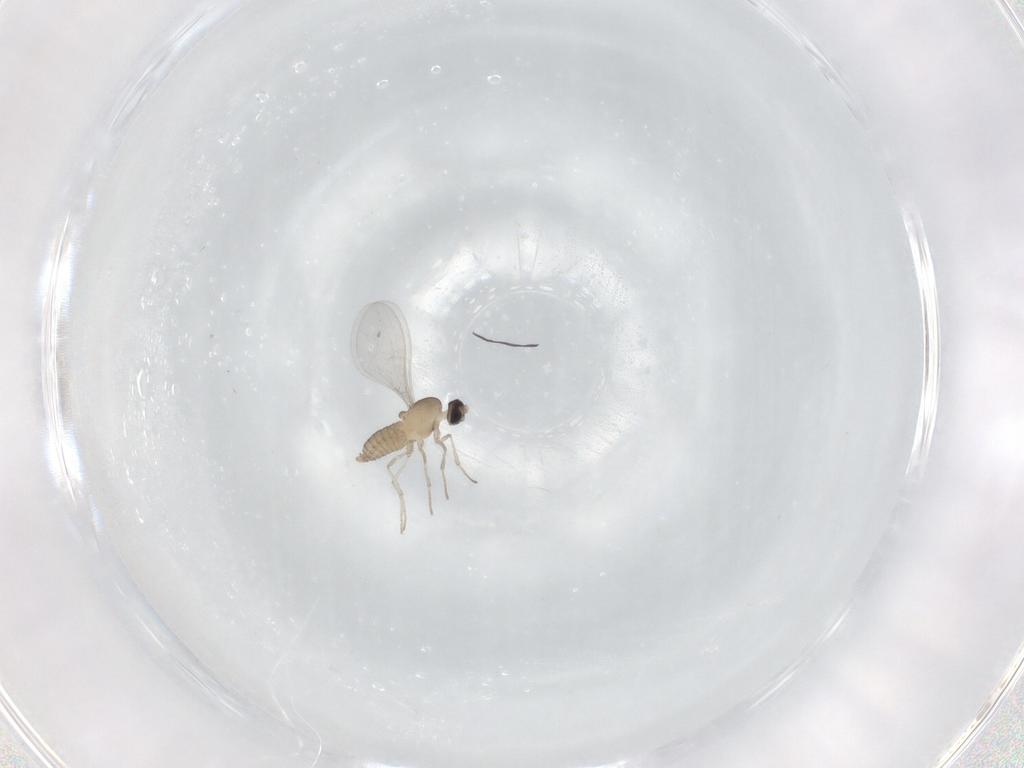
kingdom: Animalia
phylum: Arthropoda
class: Insecta
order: Diptera
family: Cecidomyiidae
